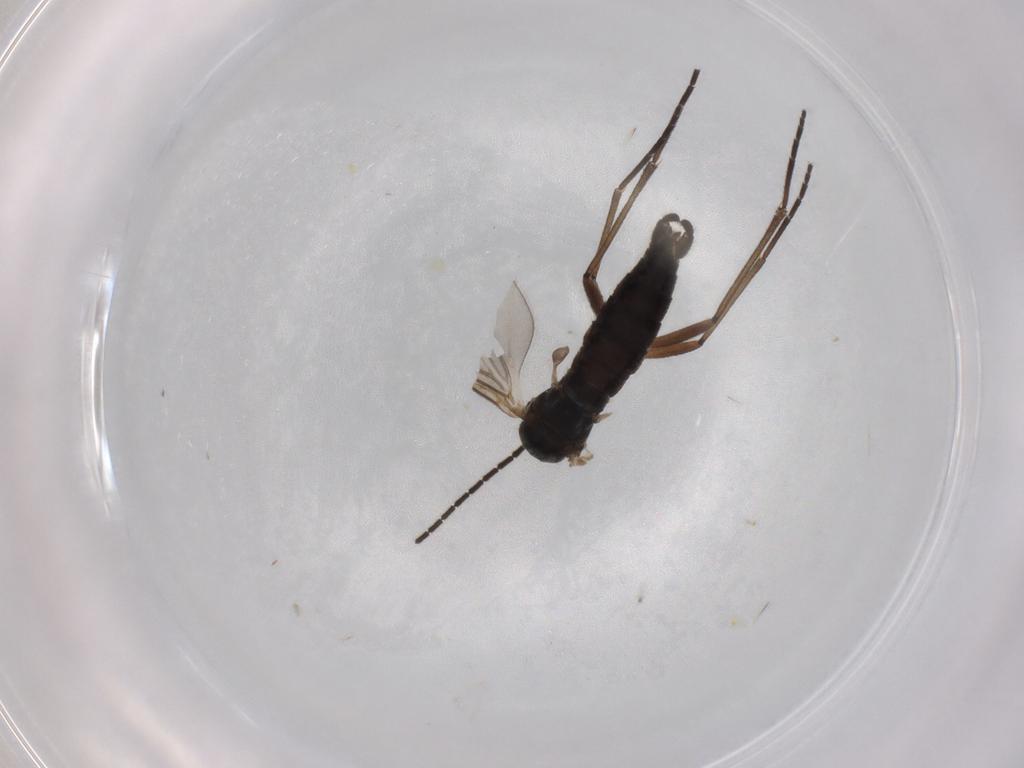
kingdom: Animalia
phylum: Arthropoda
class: Insecta
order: Diptera
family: Sciaridae
